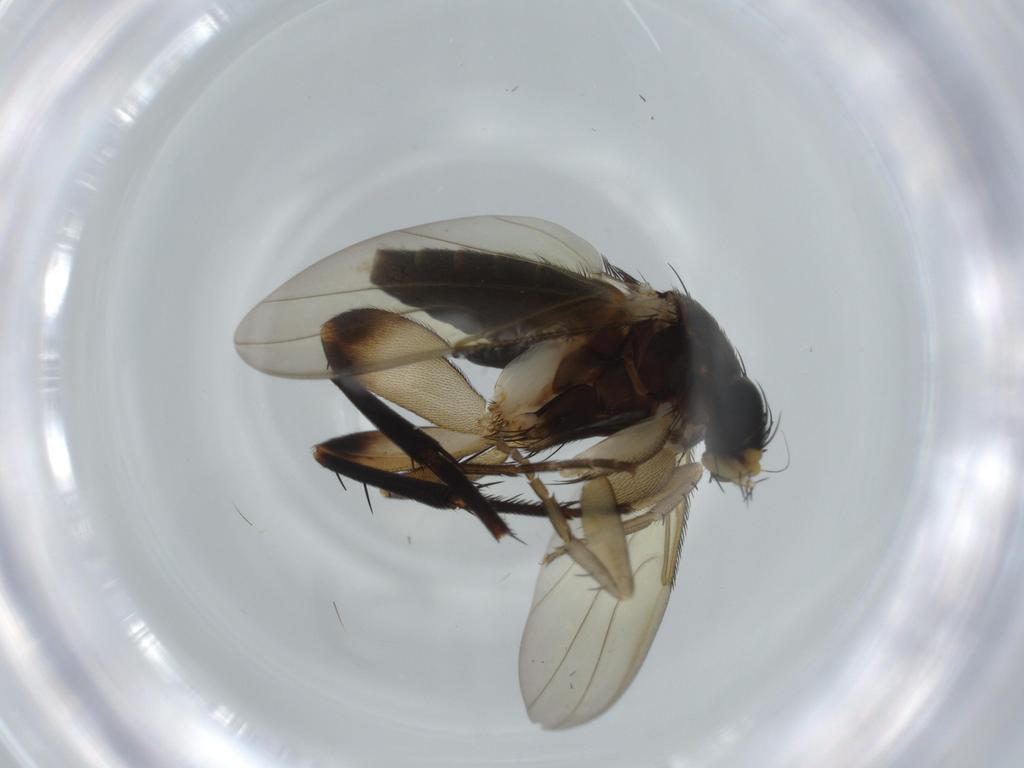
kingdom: Animalia
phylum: Arthropoda
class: Insecta
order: Diptera
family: Phoridae
